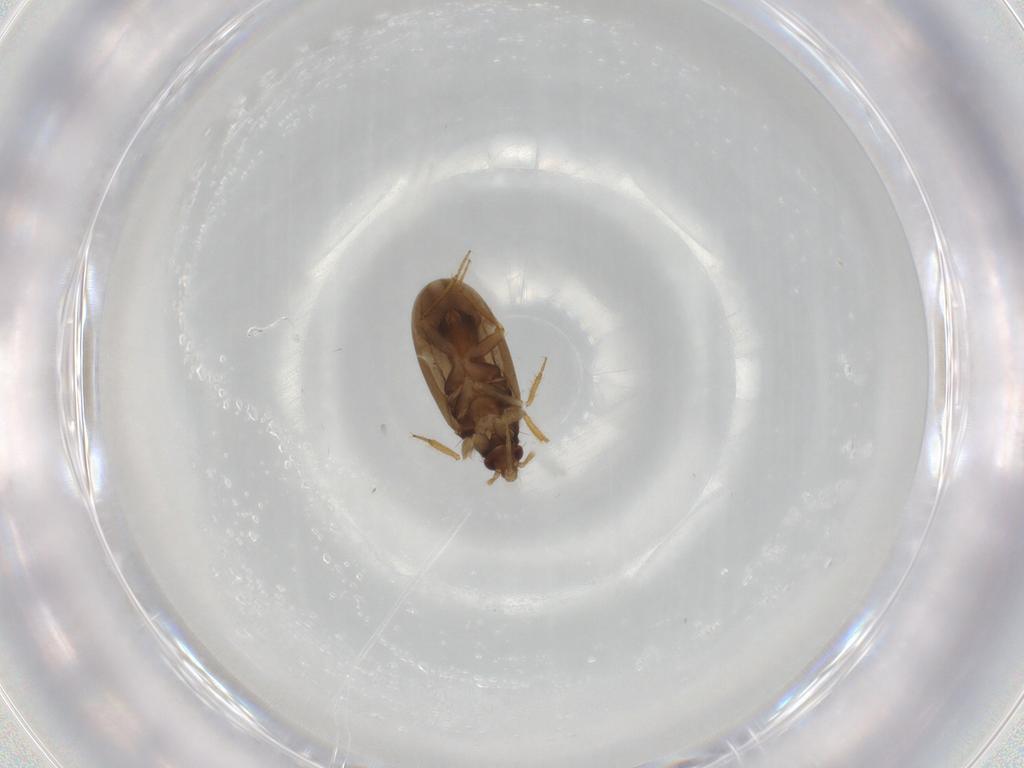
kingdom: Animalia
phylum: Arthropoda
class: Insecta
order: Hemiptera
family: Ceratocombidae
